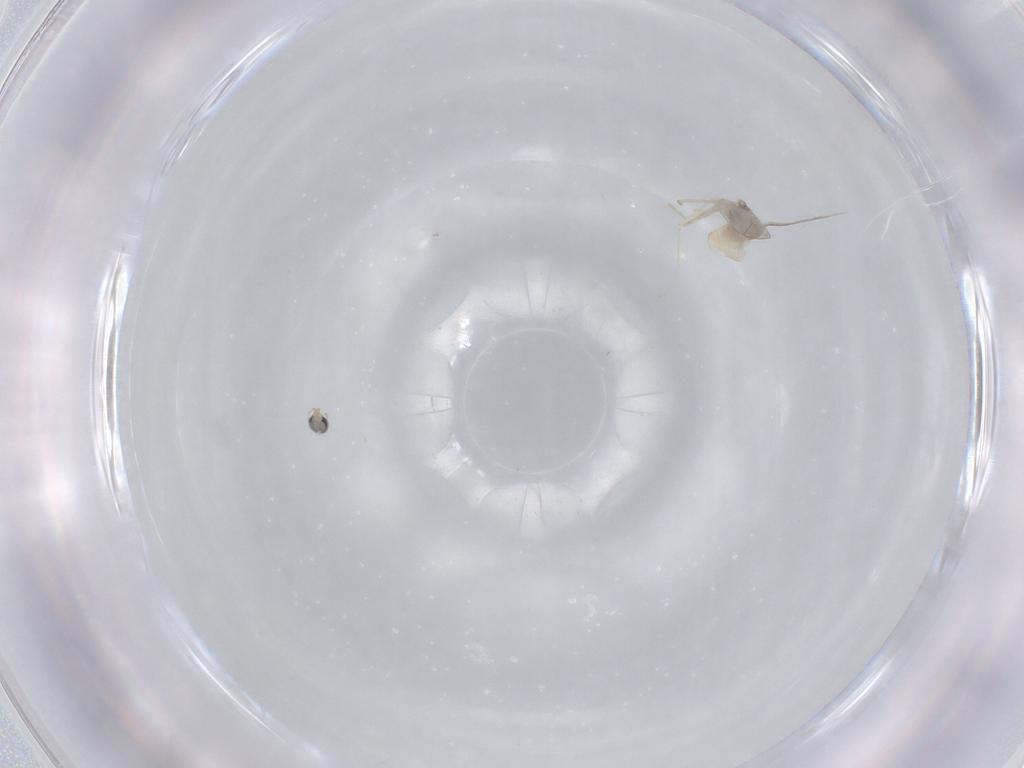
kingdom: Animalia
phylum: Arthropoda
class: Insecta
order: Diptera
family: Cecidomyiidae
